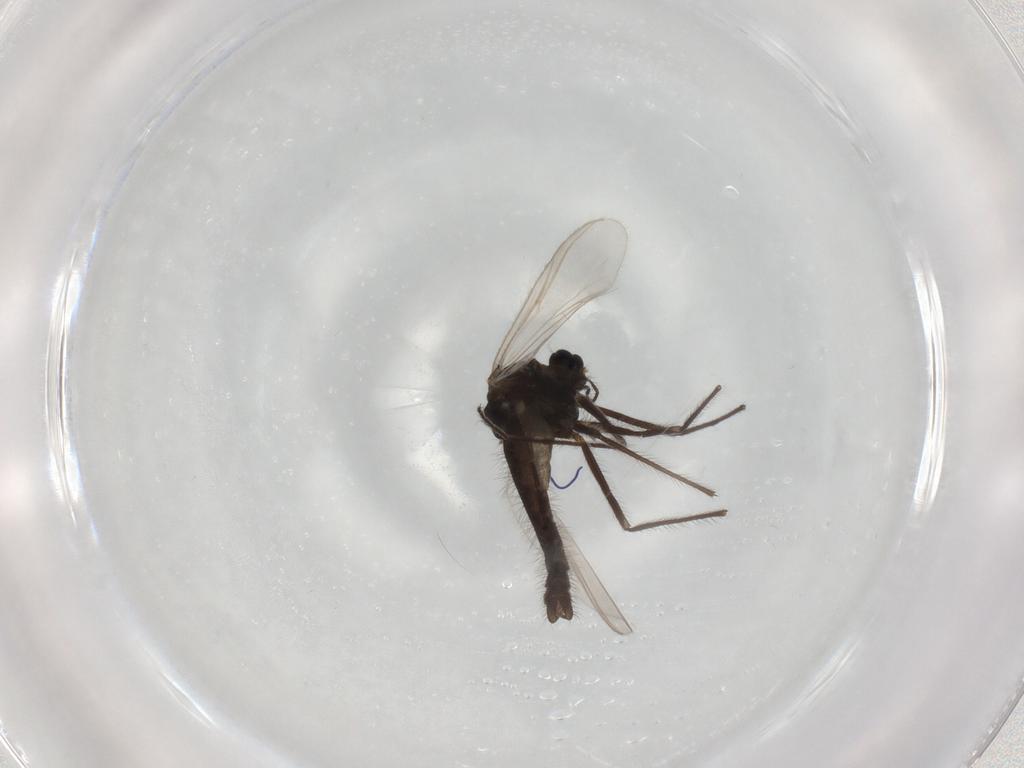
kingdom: Animalia
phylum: Arthropoda
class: Insecta
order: Diptera
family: Chironomidae
